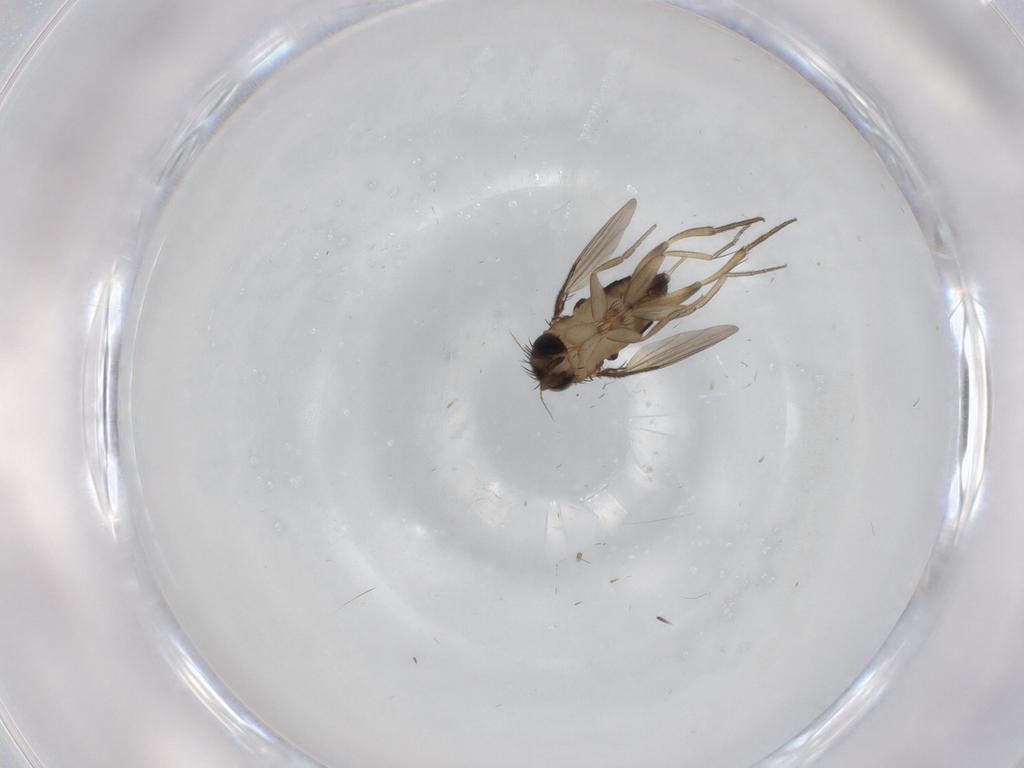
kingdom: Animalia
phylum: Arthropoda
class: Insecta
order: Diptera
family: Phoridae
